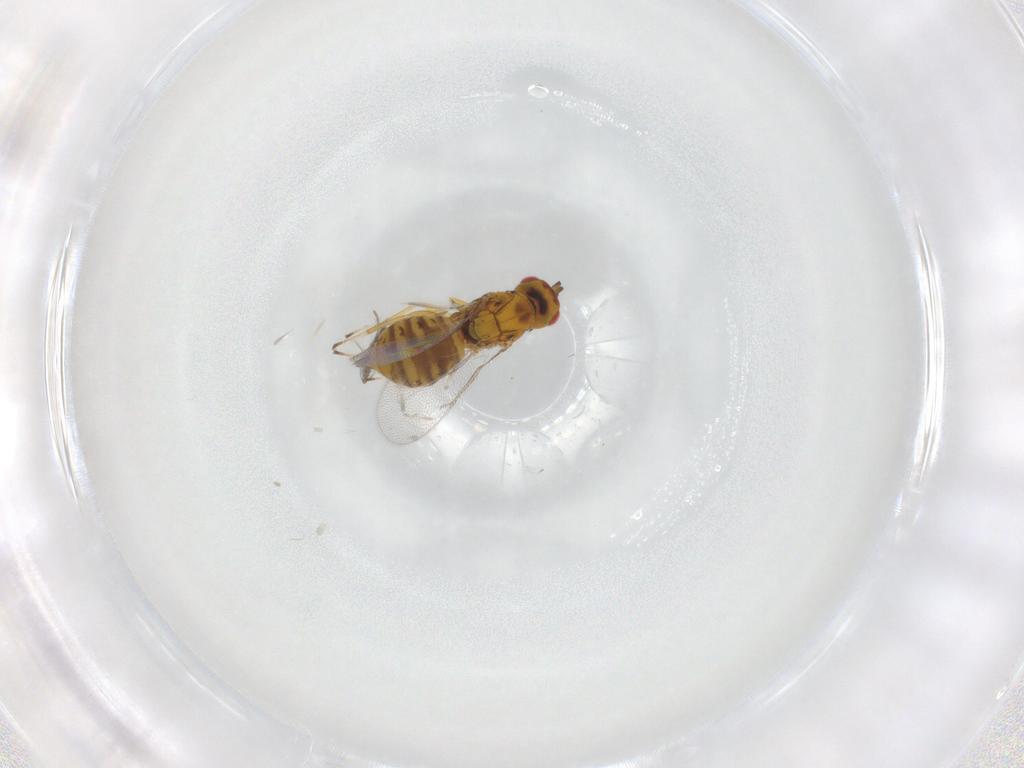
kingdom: Animalia
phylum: Arthropoda
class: Insecta
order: Hymenoptera
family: Eulophidae
